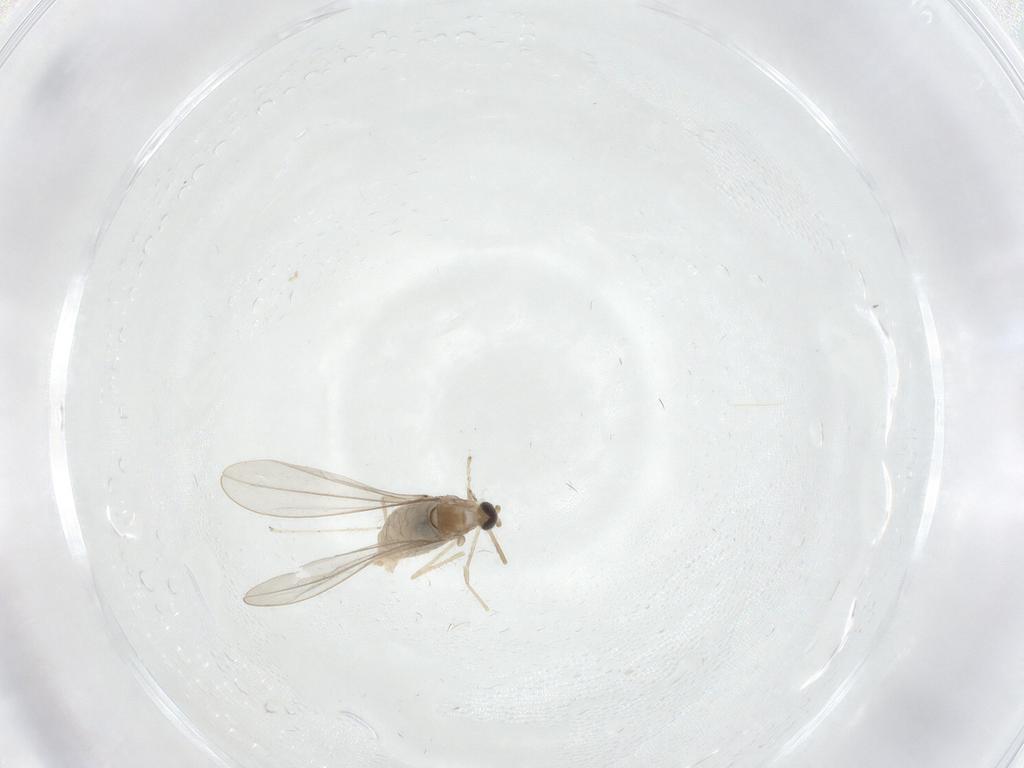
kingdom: Animalia
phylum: Arthropoda
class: Insecta
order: Diptera
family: Cecidomyiidae
